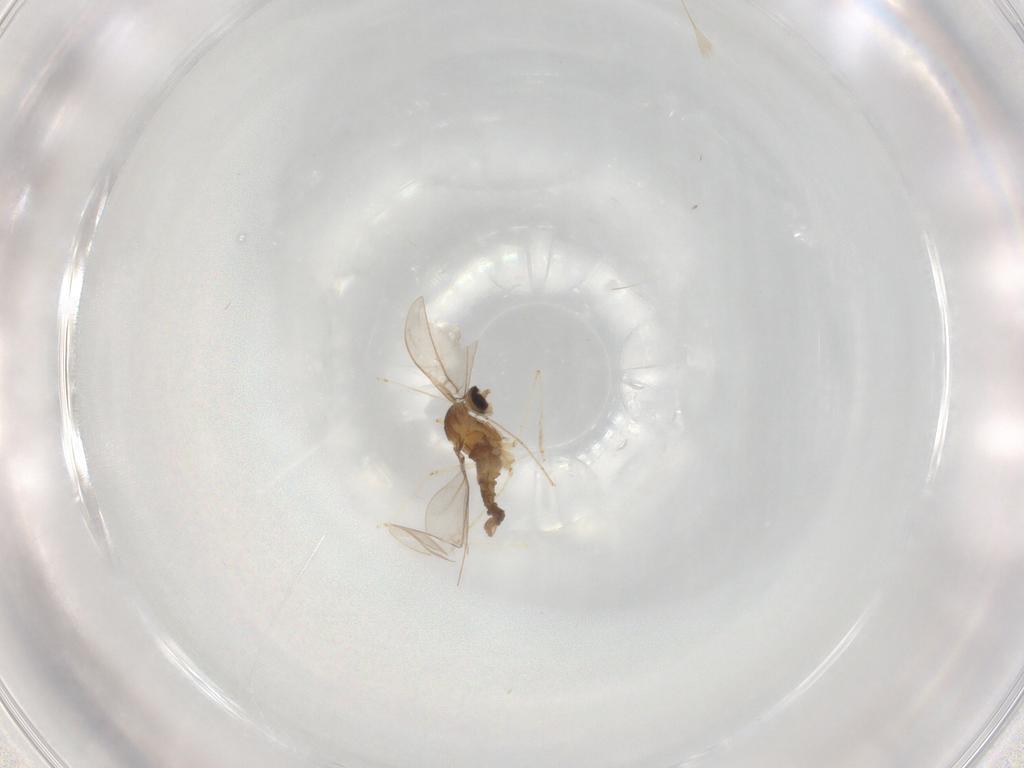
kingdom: Animalia
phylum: Arthropoda
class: Insecta
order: Diptera
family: Cecidomyiidae
